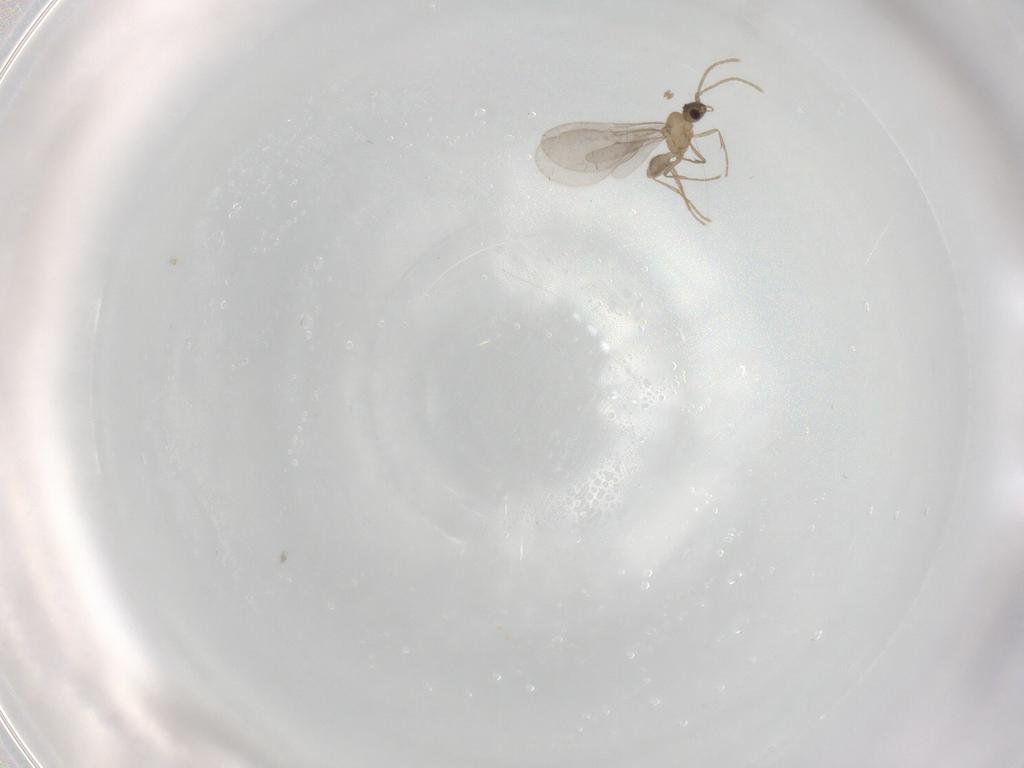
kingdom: Animalia
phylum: Arthropoda
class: Insecta
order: Hymenoptera
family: Formicidae
